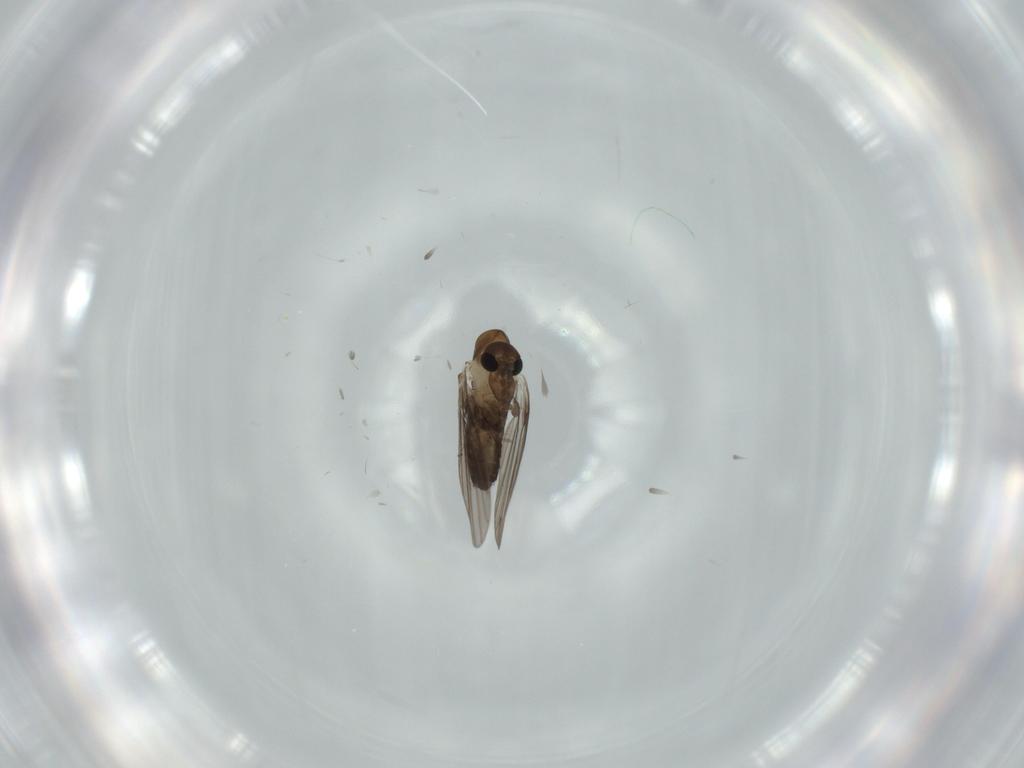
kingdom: Animalia
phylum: Arthropoda
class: Insecta
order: Diptera
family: Psychodidae
